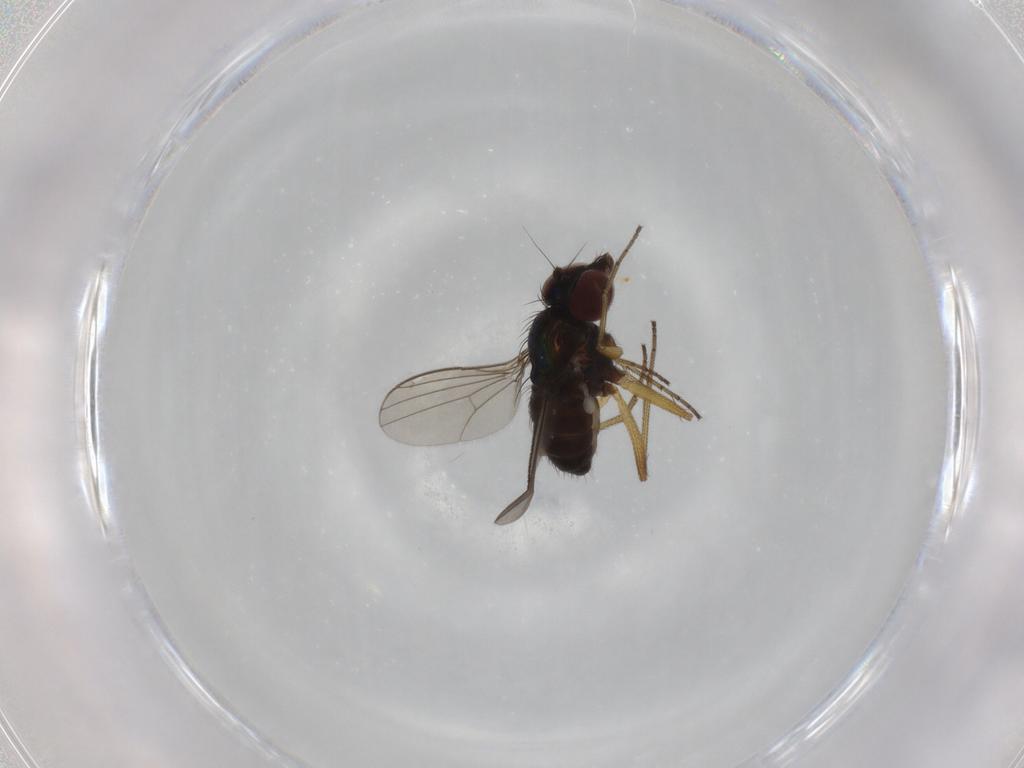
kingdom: Animalia
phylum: Arthropoda
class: Insecta
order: Diptera
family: Dolichopodidae
